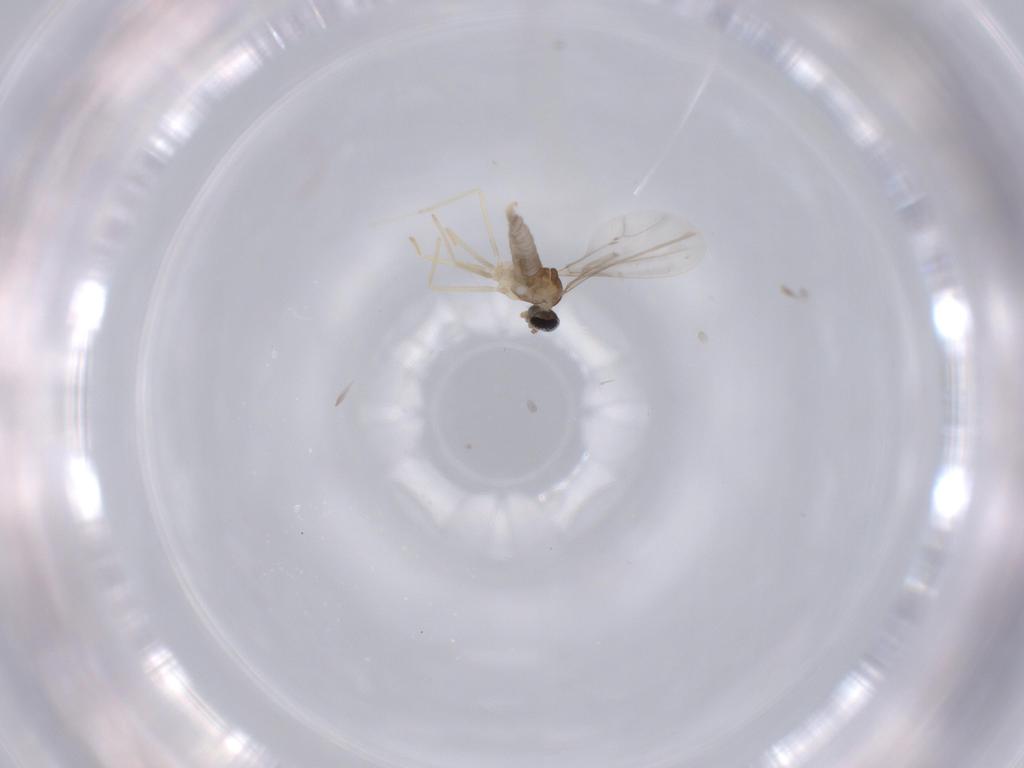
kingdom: Animalia
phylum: Arthropoda
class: Insecta
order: Diptera
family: Cecidomyiidae
